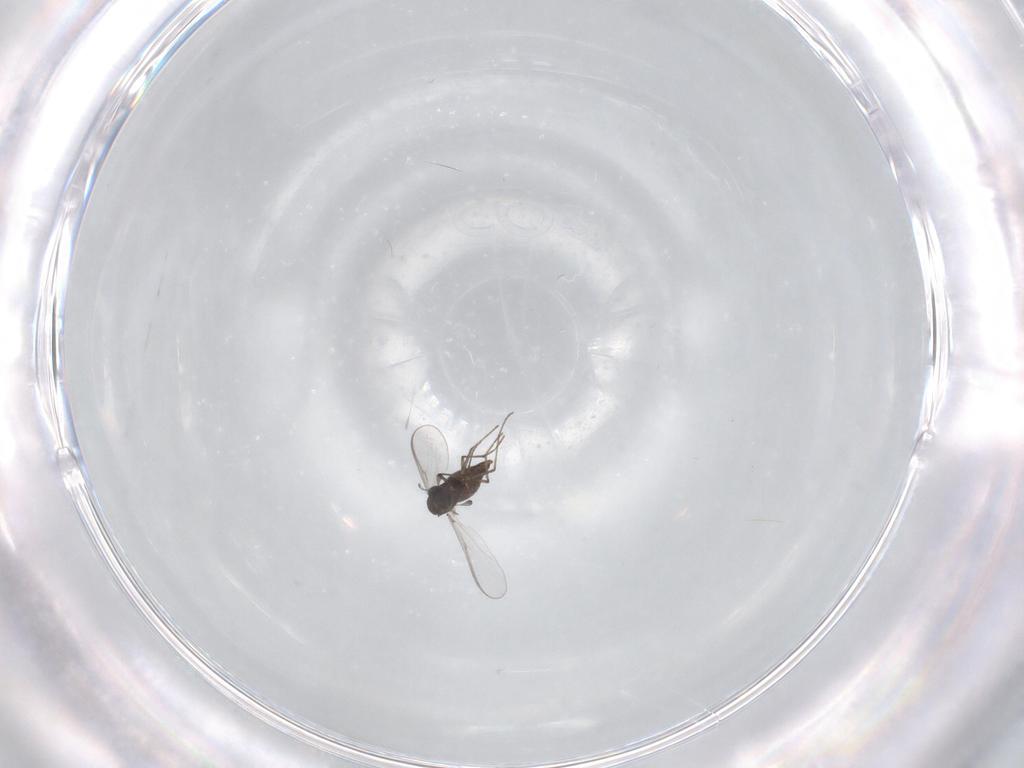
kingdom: Animalia
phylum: Arthropoda
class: Insecta
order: Diptera
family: Chironomidae
